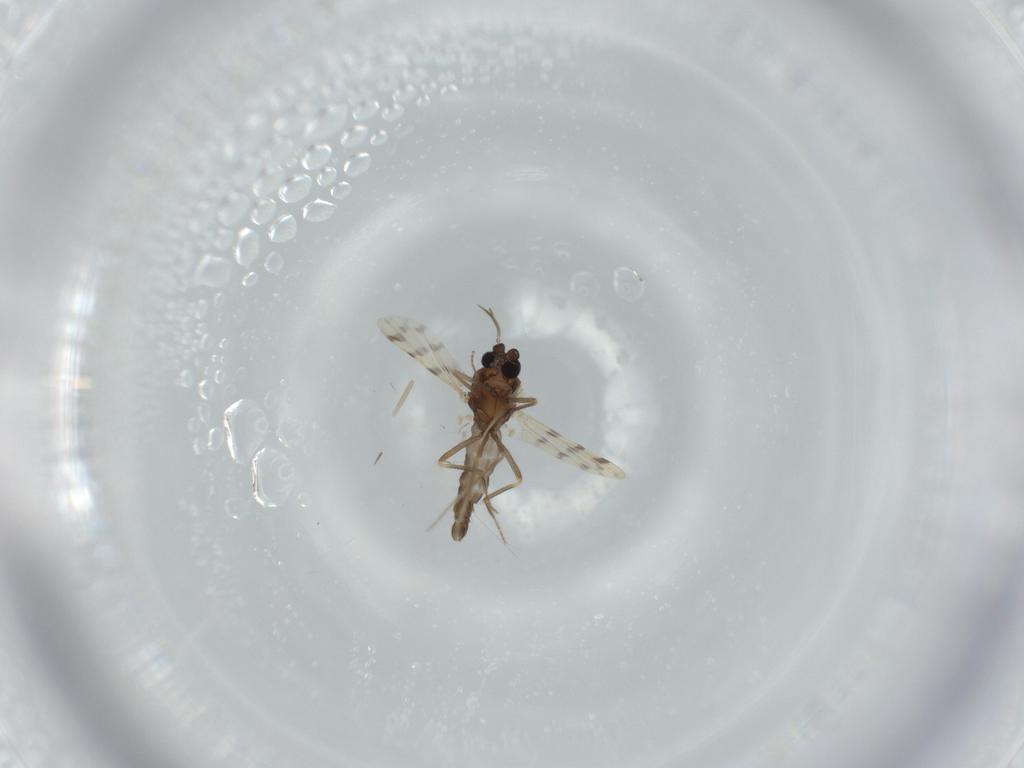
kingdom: Animalia
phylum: Arthropoda
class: Insecta
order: Diptera
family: Ceratopogonidae
